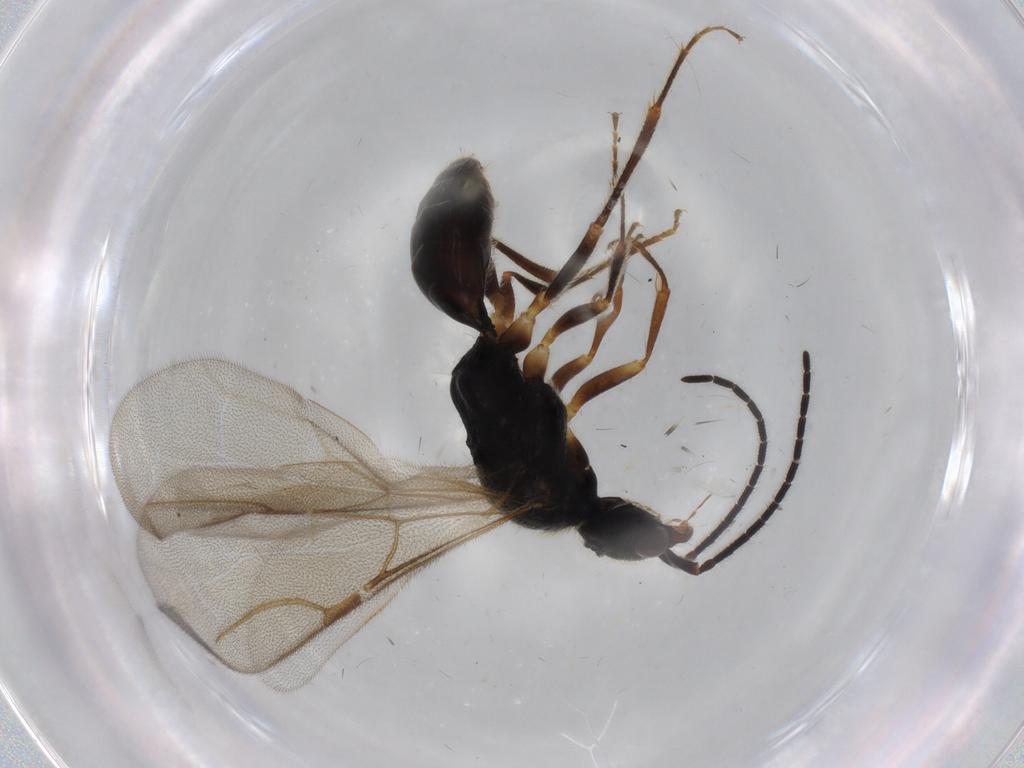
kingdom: Animalia
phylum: Arthropoda
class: Insecta
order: Hymenoptera
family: Bethylidae
